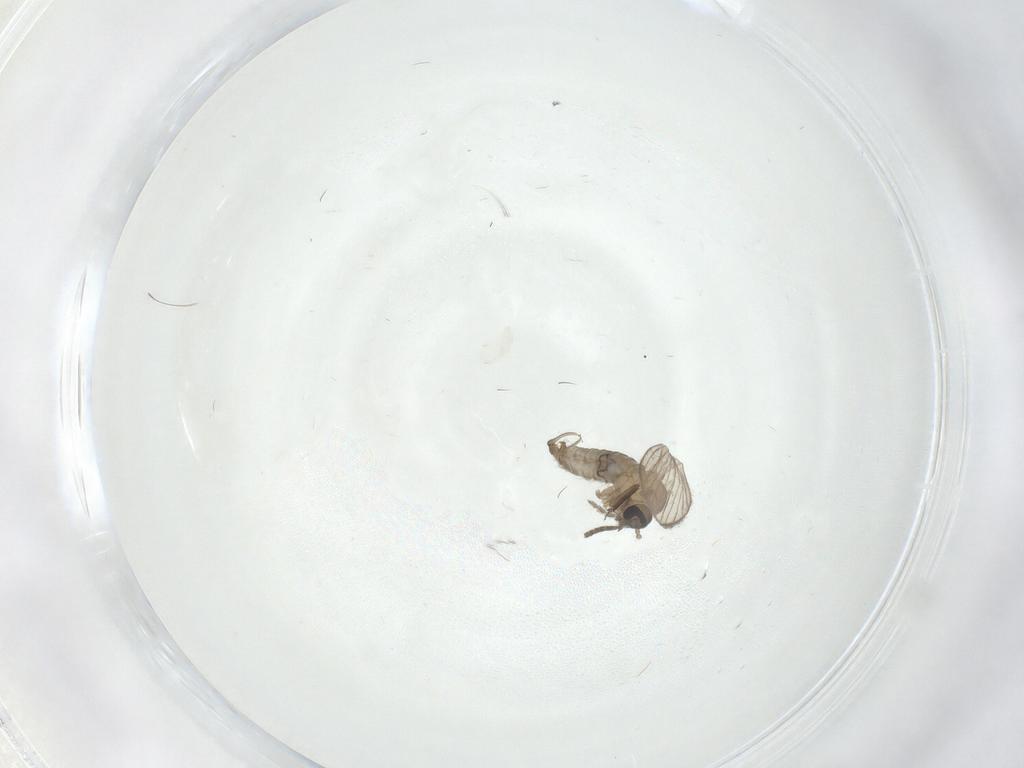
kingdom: Animalia
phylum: Arthropoda
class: Insecta
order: Diptera
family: Psychodidae
